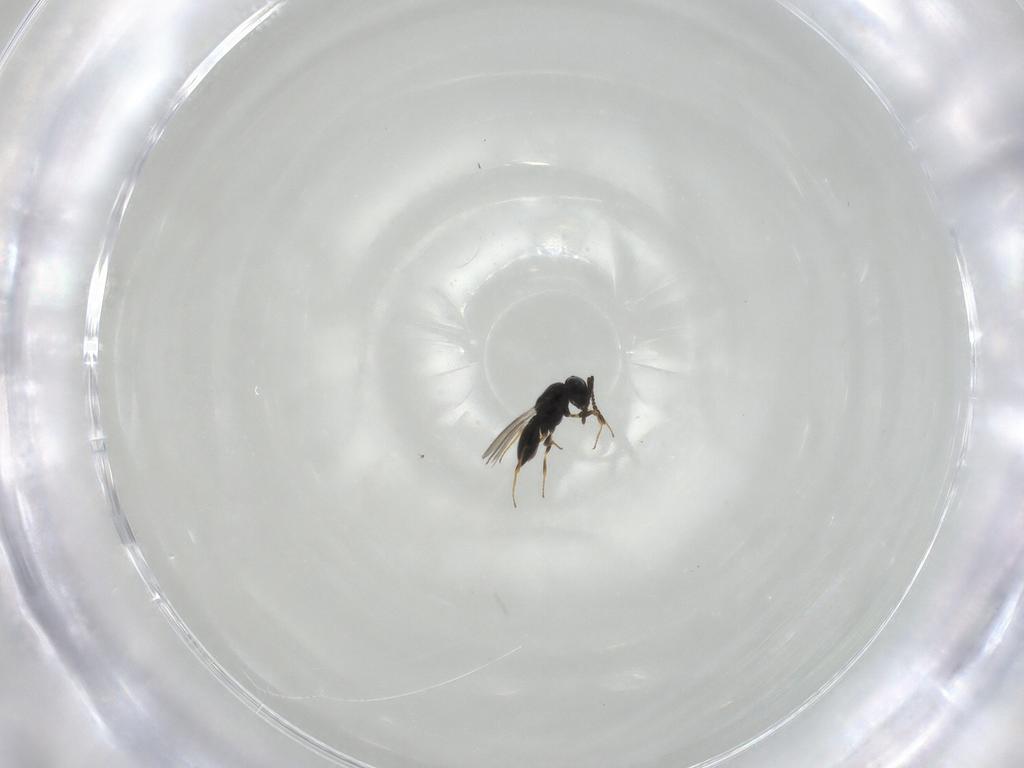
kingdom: Animalia
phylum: Arthropoda
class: Insecta
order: Hymenoptera
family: Scelionidae
